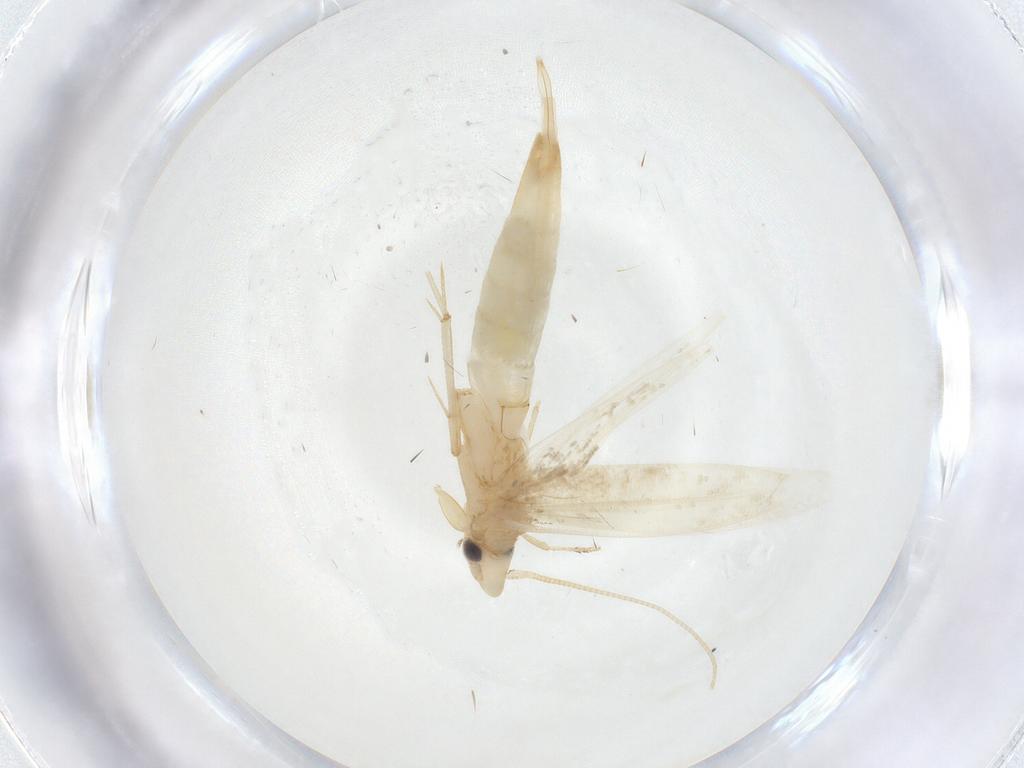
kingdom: Animalia
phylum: Arthropoda
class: Insecta
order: Lepidoptera
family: Tineidae
